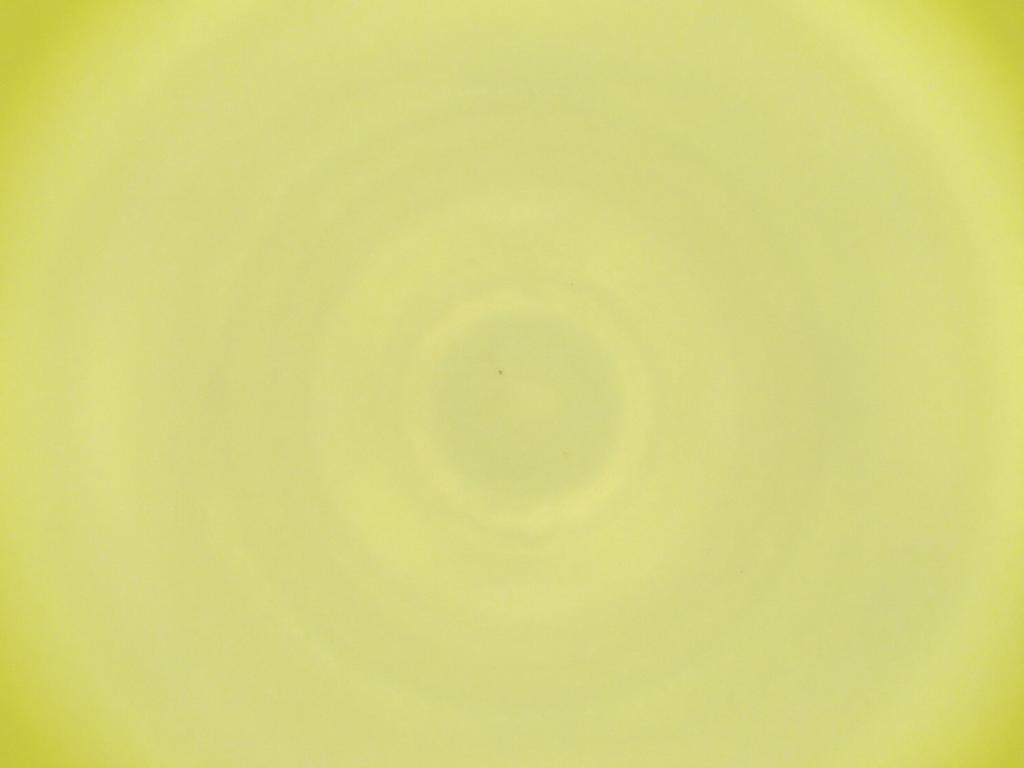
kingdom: Animalia
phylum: Arthropoda
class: Insecta
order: Diptera
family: Cecidomyiidae
